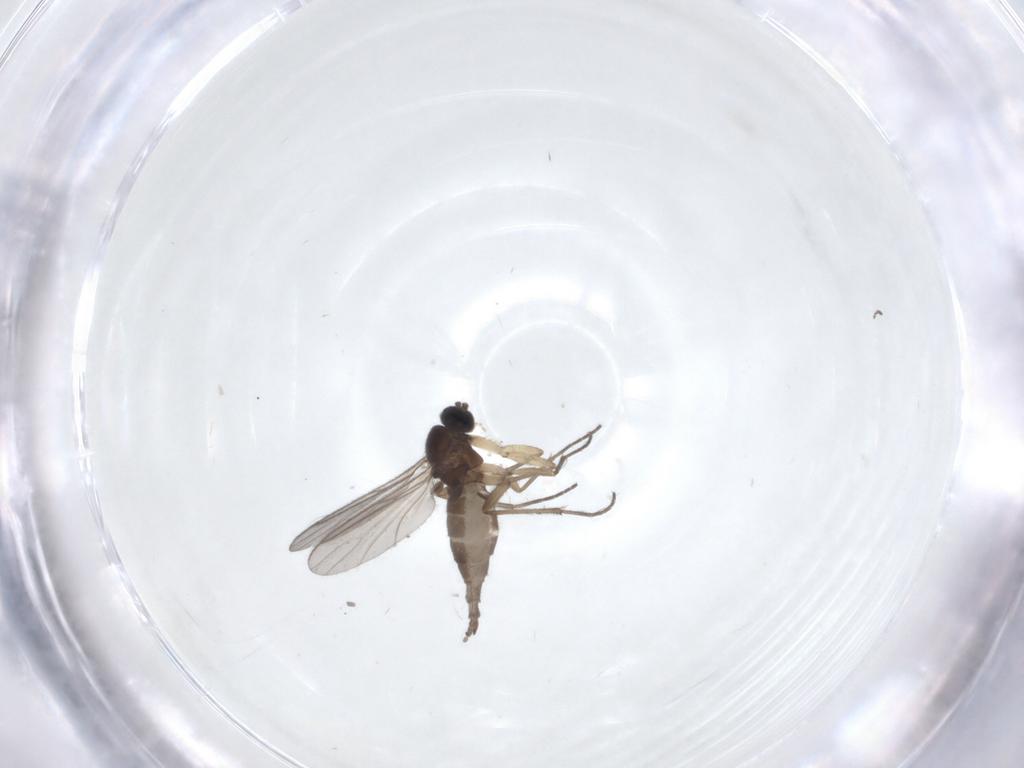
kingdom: Animalia
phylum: Arthropoda
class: Insecta
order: Diptera
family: Sciaridae
